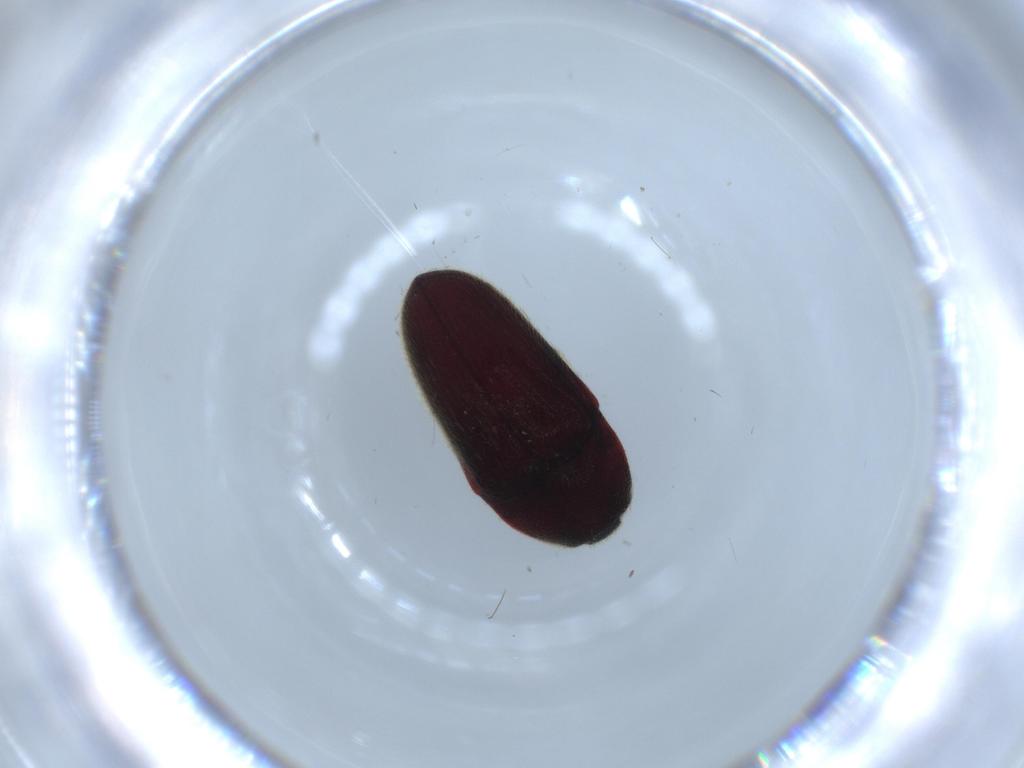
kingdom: Animalia
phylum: Arthropoda
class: Insecta
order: Coleoptera
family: Throscidae
